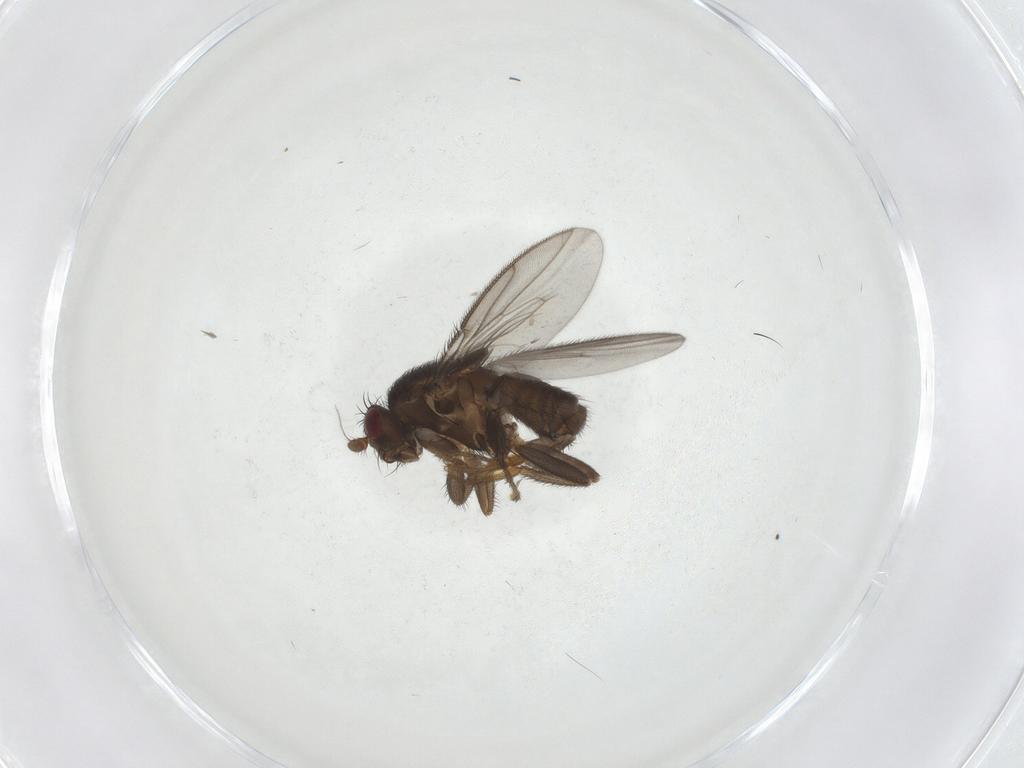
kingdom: Animalia
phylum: Arthropoda
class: Insecta
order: Diptera
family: Sphaeroceridae
